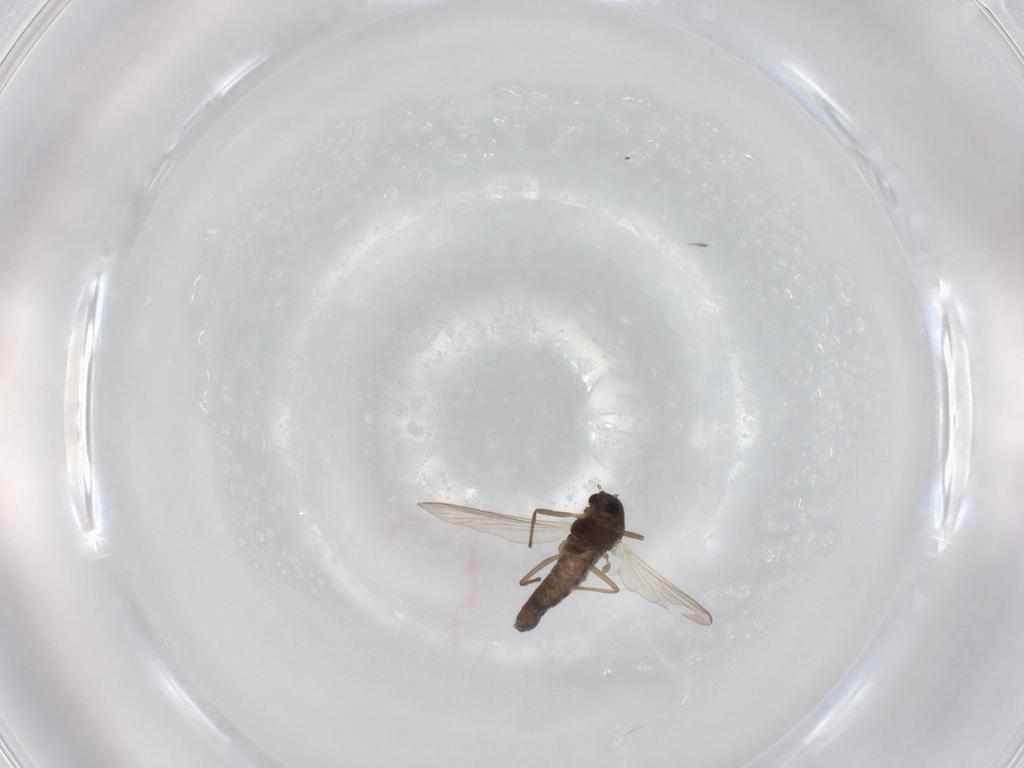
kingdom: Animalia
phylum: Arthropoda
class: Insecta
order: Diptera
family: Chironomidae
